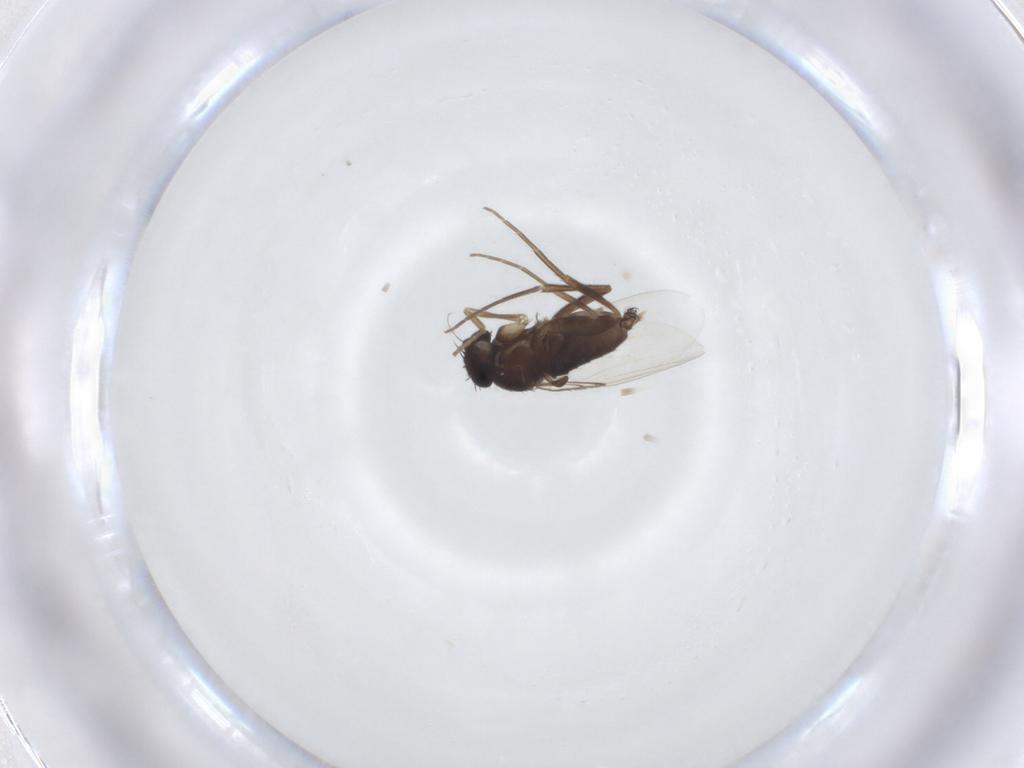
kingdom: Animalia
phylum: Arthropoda
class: Insecta
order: Diptera
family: Phoridae
